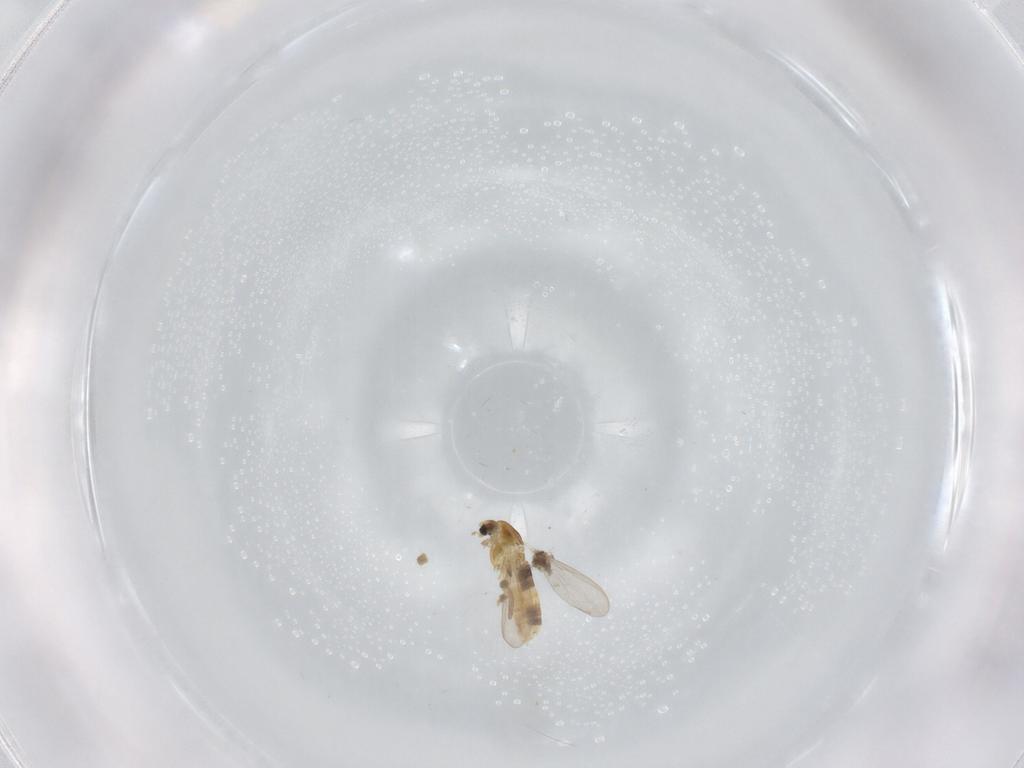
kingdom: Animalia
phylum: Arthropoda
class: Insecta
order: Diptera
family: Chironomidae
